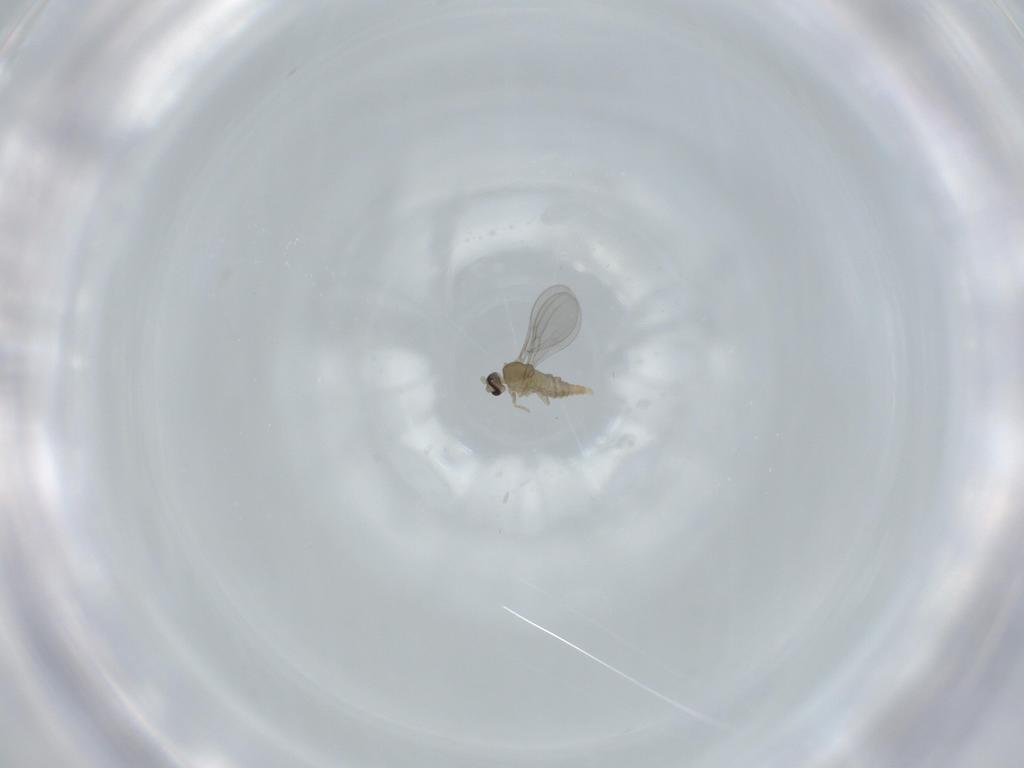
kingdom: Animalia
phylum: Arthropoda
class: Insecta
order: Diptera
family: Cecidomyiidae
